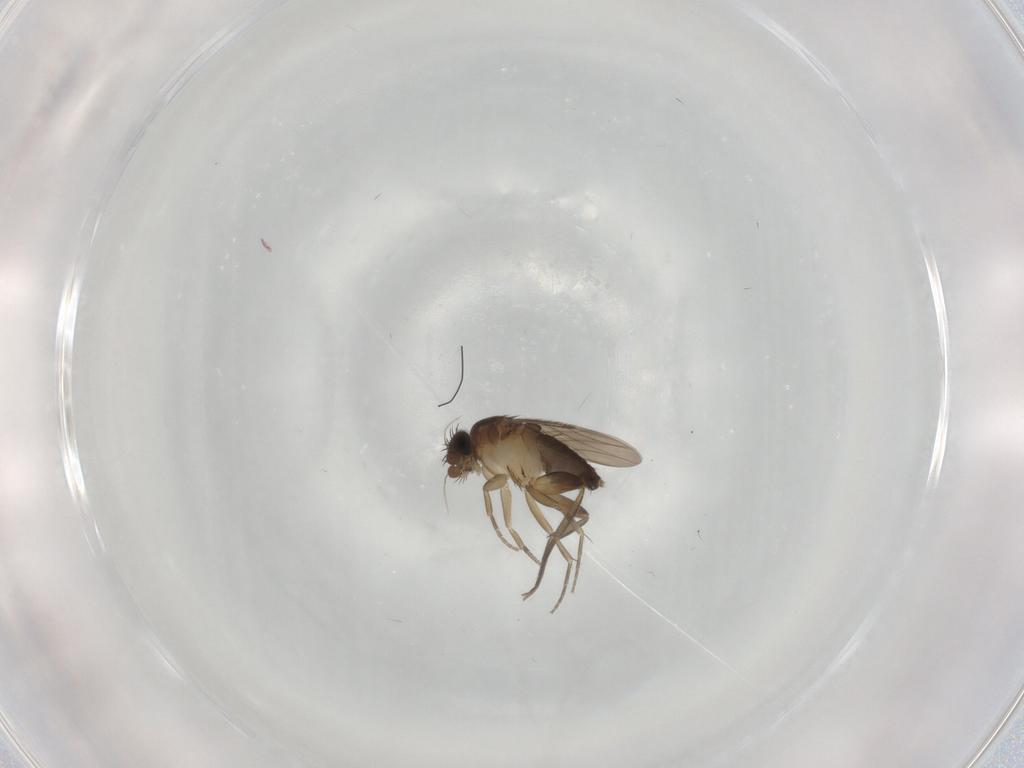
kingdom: Animalia
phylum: Arthropoda
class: Insecta
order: Diptera
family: Phoridae
